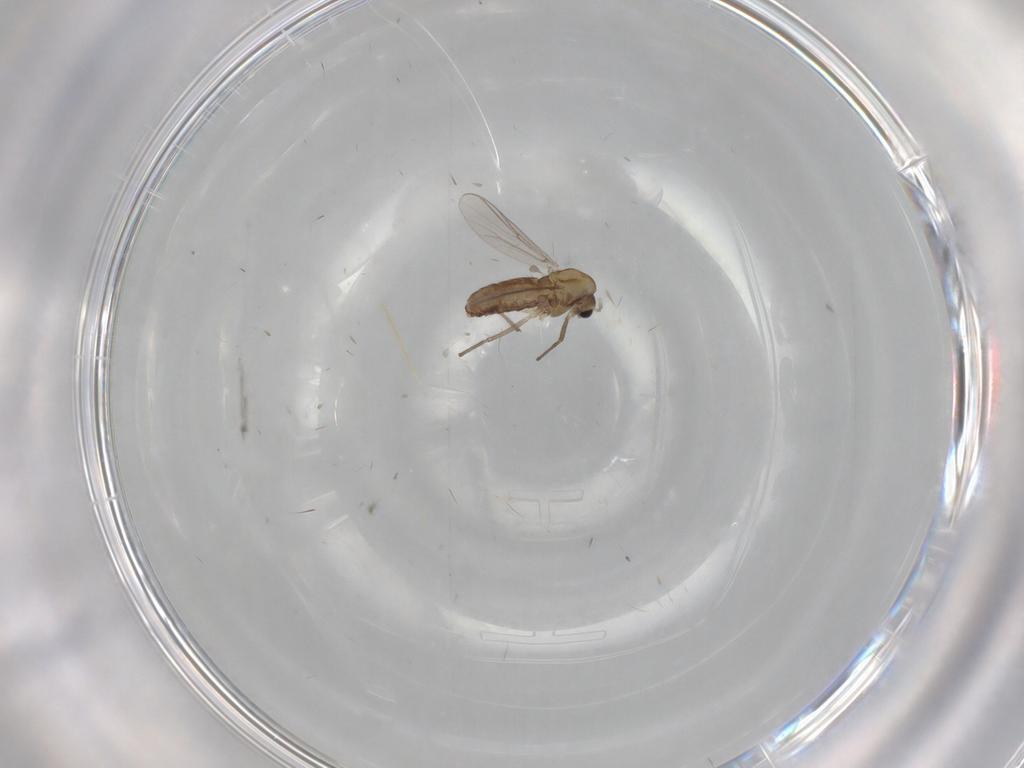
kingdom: Animalia
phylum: Arthropoda
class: Insecta
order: Diptera
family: Chironomidae
